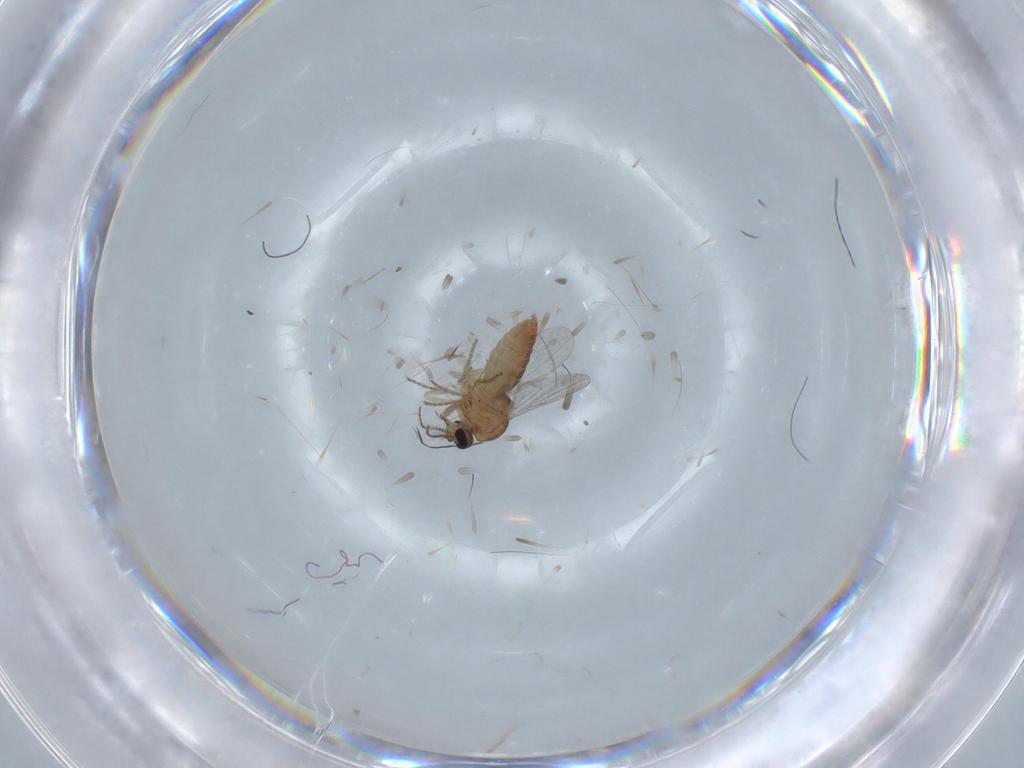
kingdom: Animalia
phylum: Arthropoda
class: Insecta
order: Diptera
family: Ceratopogonidae
